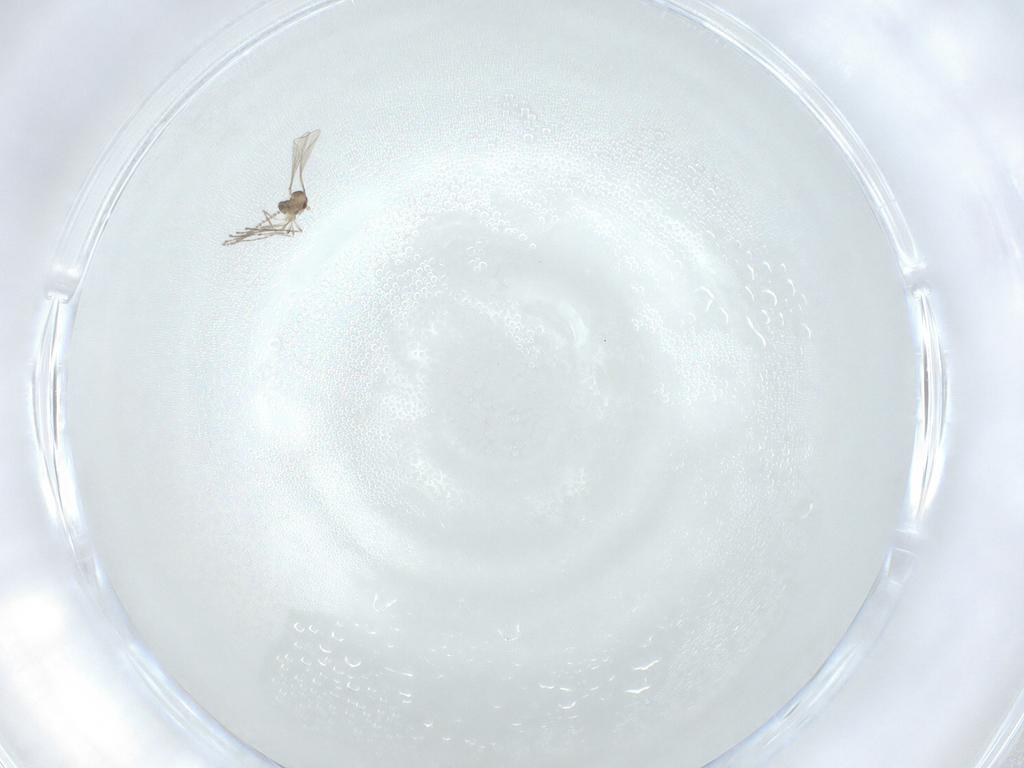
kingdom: Animalia
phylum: Arthropoda
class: Insecta
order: Diptera
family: Cecidomyiidae
